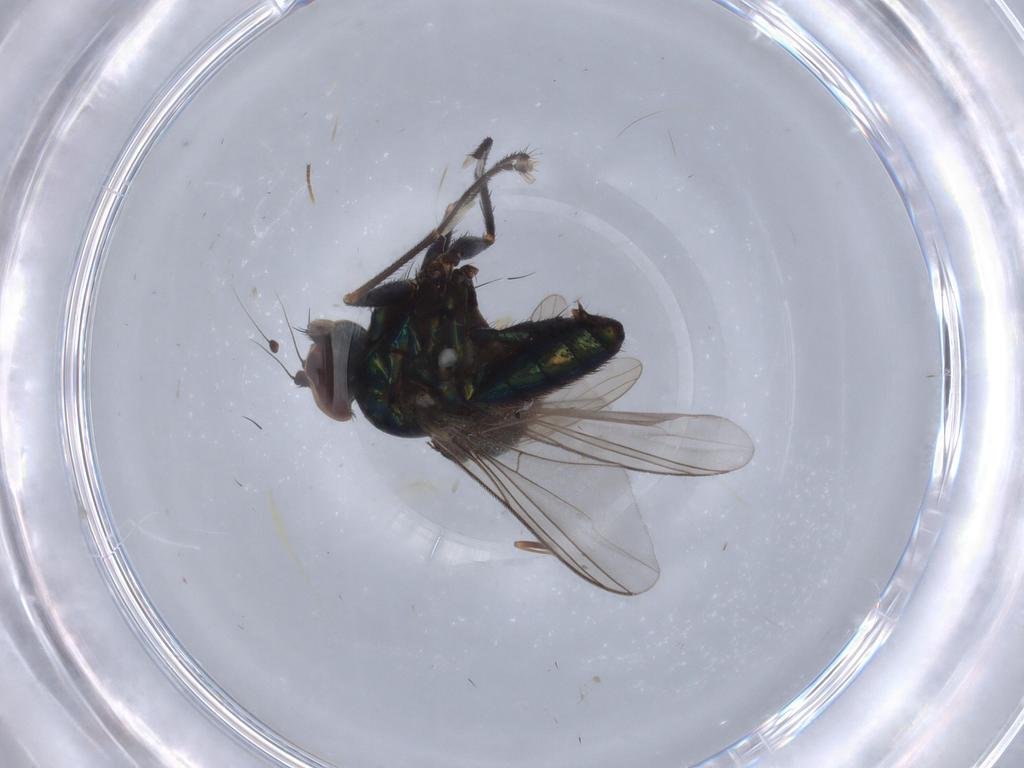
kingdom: Animalia
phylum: Arthropoda
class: Insecta
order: Diptera
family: Dolichopodidae
